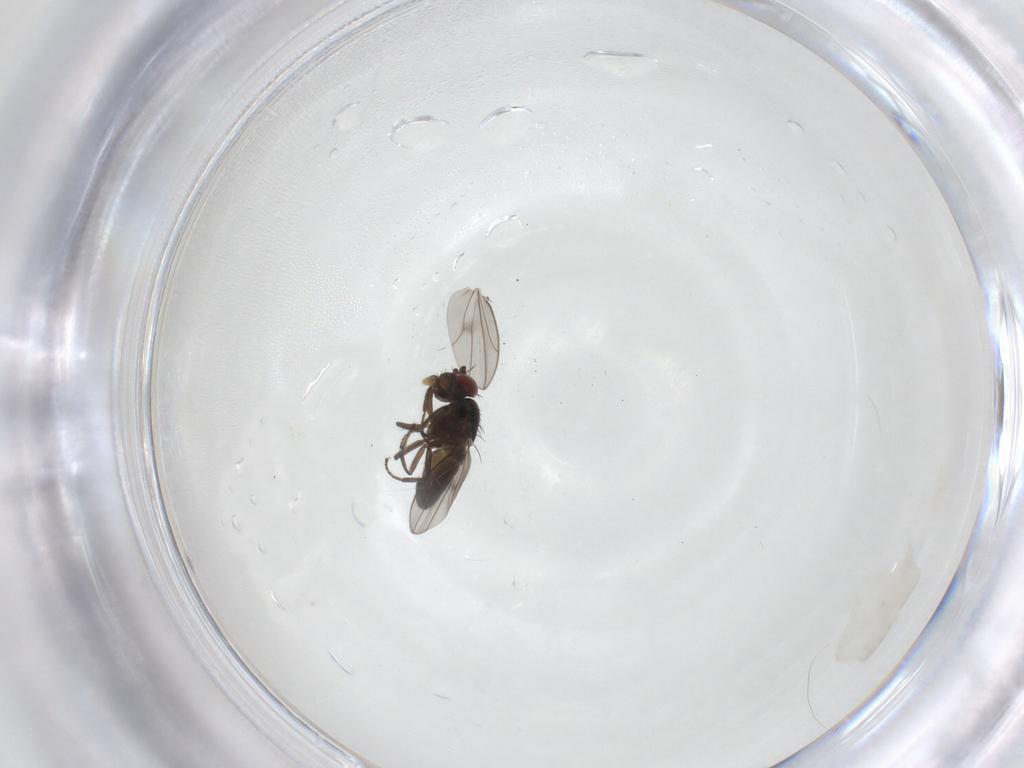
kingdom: Animalia
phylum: Arthropoda
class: Insecta
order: Diptera
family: Ephydridae
